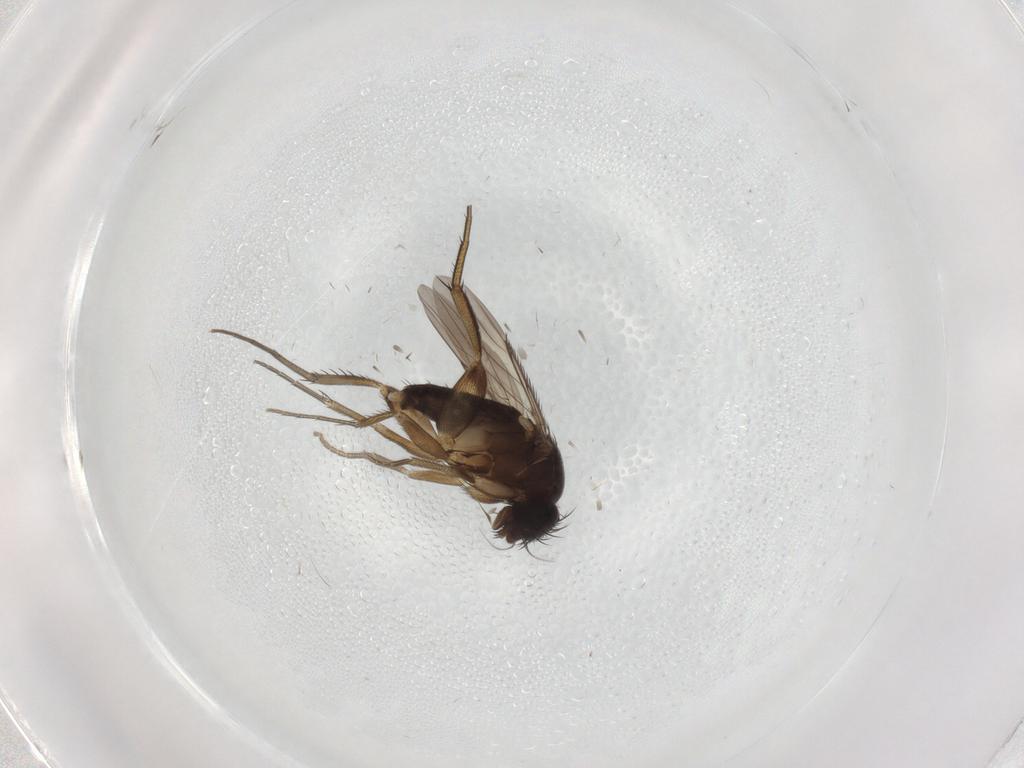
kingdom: Animalia
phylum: Arthropoda
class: Insecta
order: Diptera
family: Phoridae
